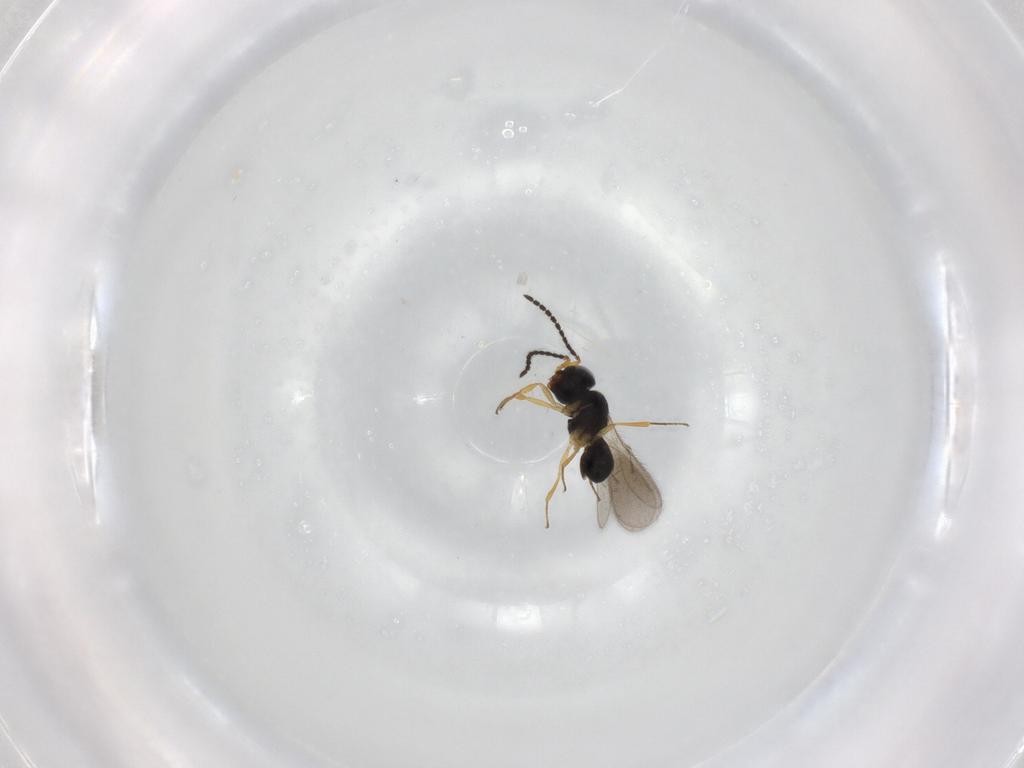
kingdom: Animalia
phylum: Arthropoda
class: Insecta
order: Hymenoptera
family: Scelionidae
